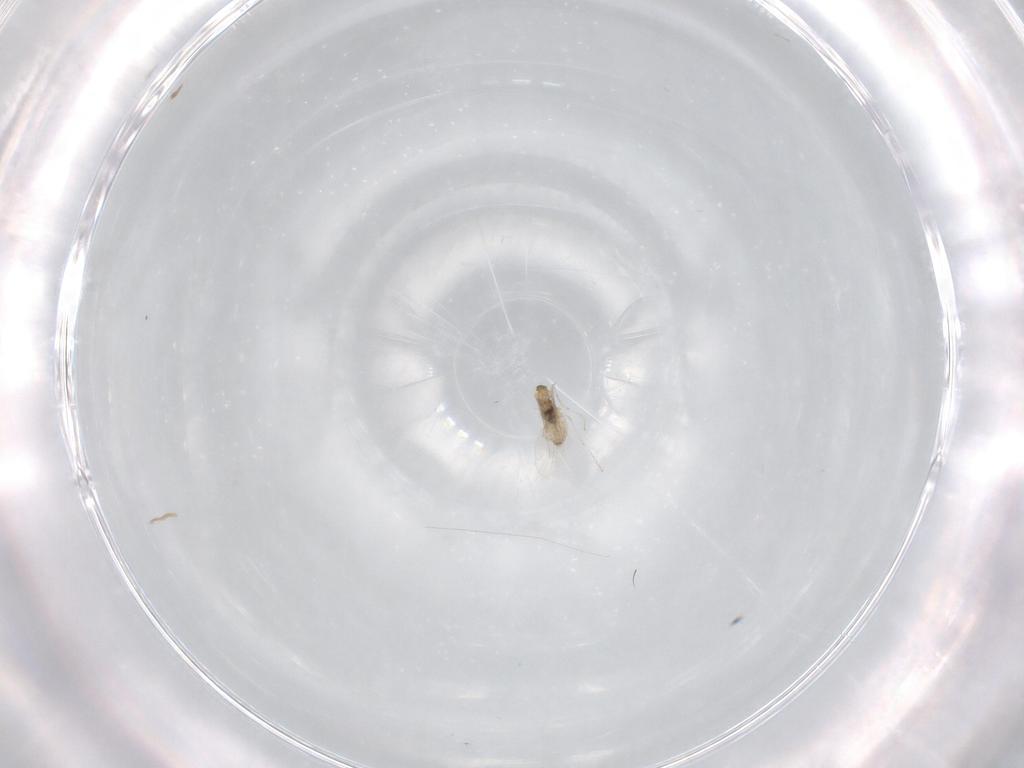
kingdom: Animalia
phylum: Arthropoda
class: Insecta
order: Diptera
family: Cecidomyiidae
